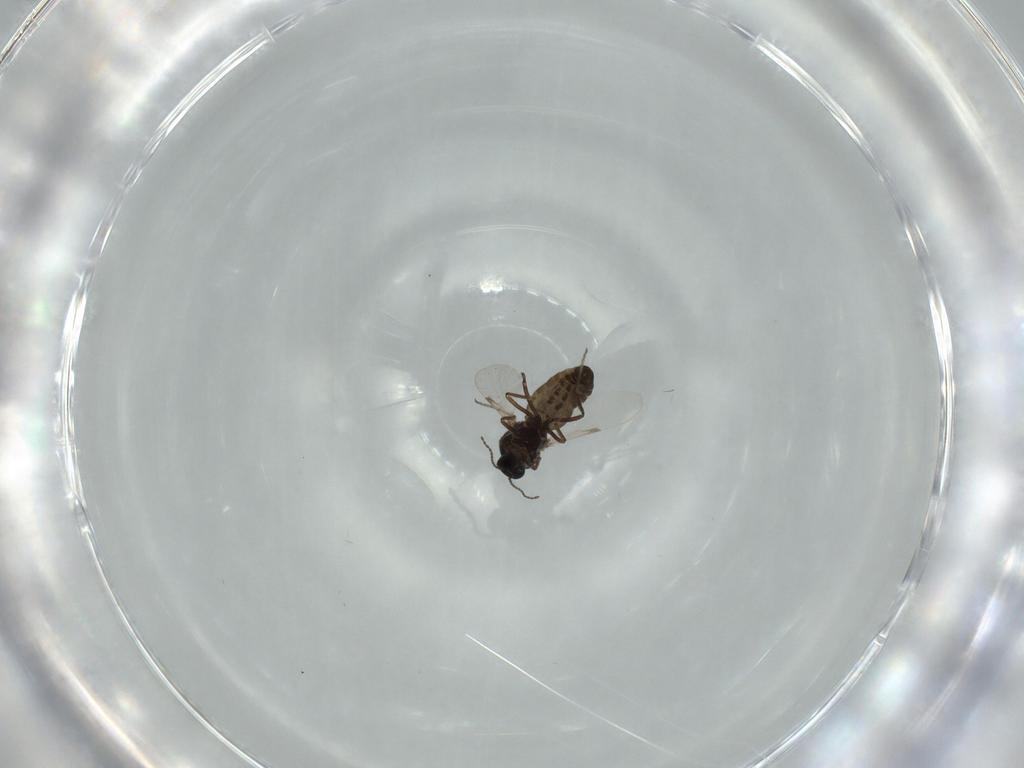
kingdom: Animalia
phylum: Arthropoda
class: Insecta
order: Diptera
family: Ceratopogonidae
